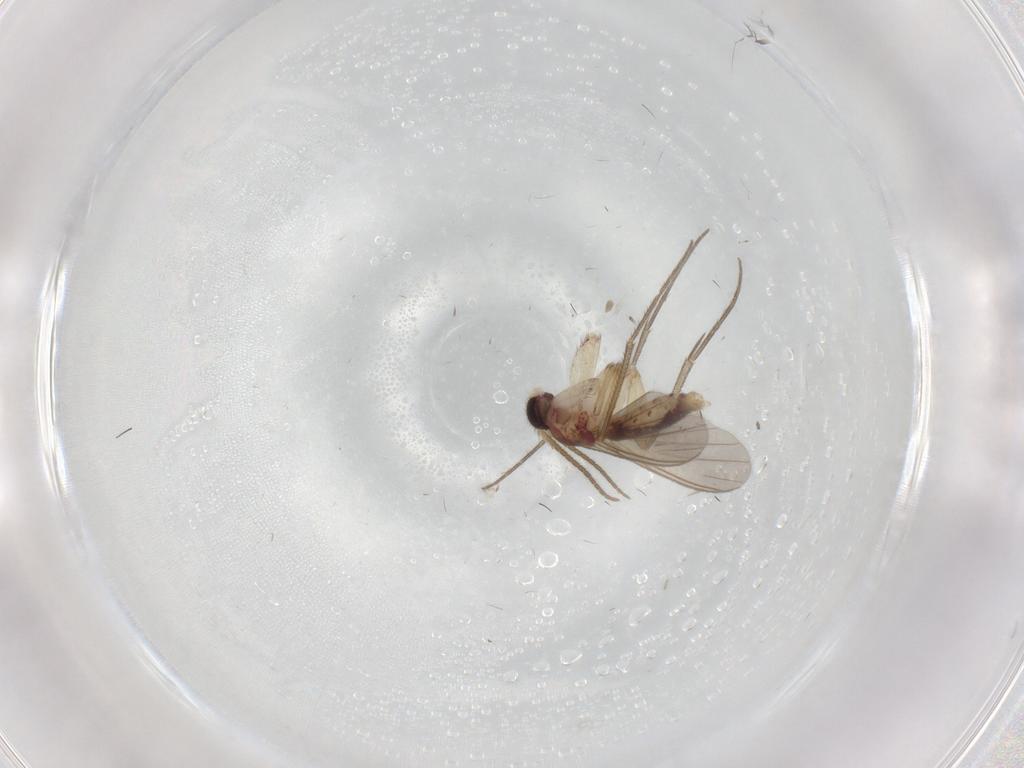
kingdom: Animalia
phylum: Arthropoda
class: Insecta
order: Diptera
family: Mycetophilidae
